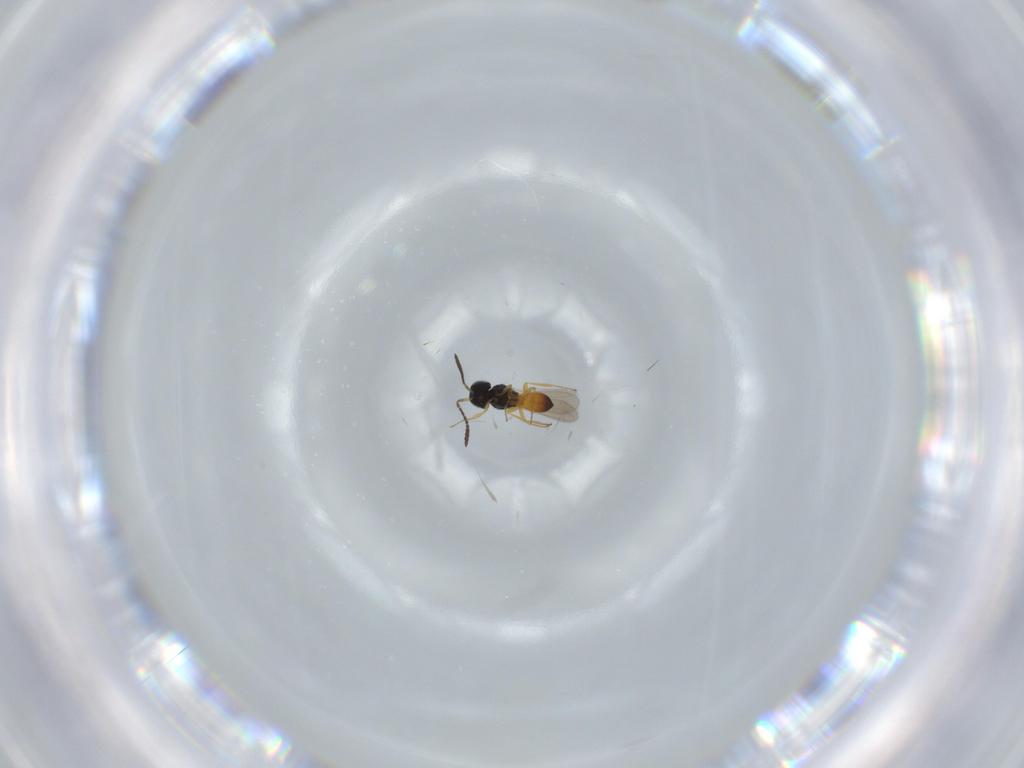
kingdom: Animalia
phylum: Arthropoda
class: Insecta
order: Hymenoptera
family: Scelionidae
